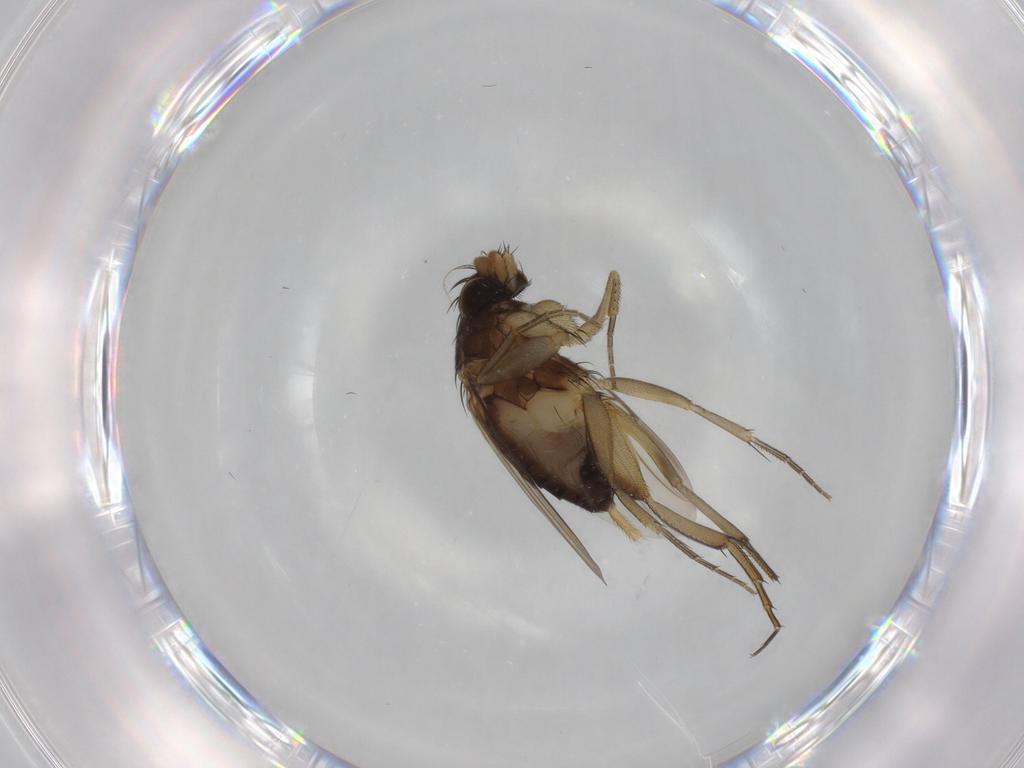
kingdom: Animalia
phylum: Arthropoda
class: Insecta
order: Diptera
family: Phoridae
